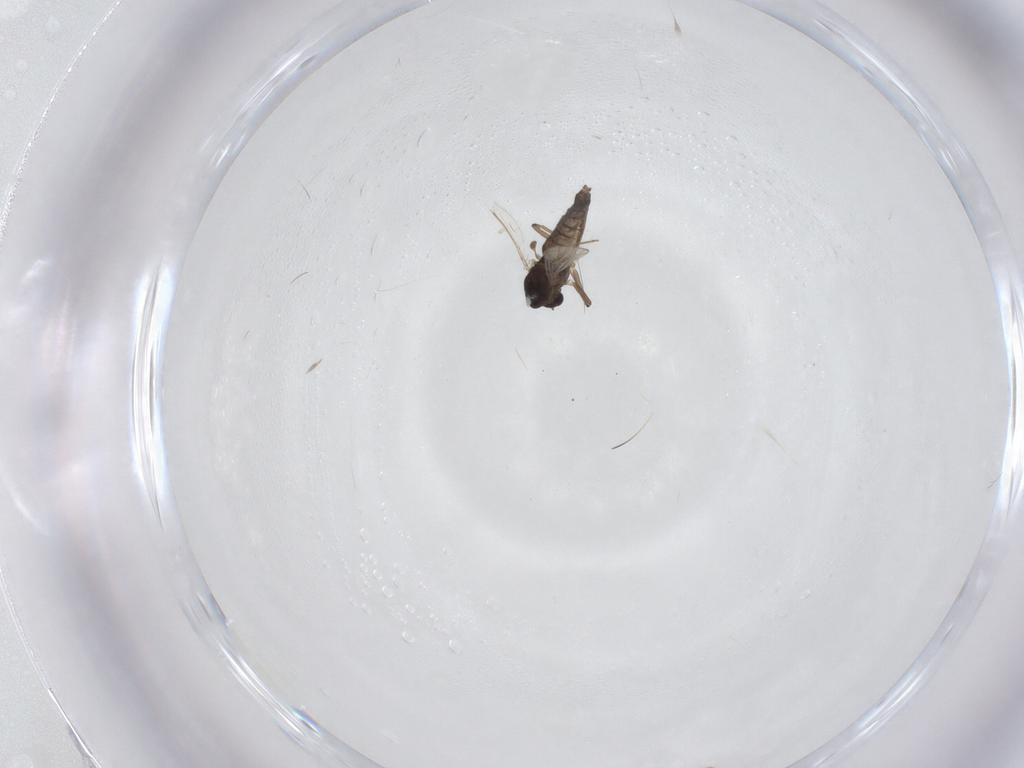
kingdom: Animalia
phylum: Arthropoda
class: Insecta
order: Diptera
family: Chironomidae
